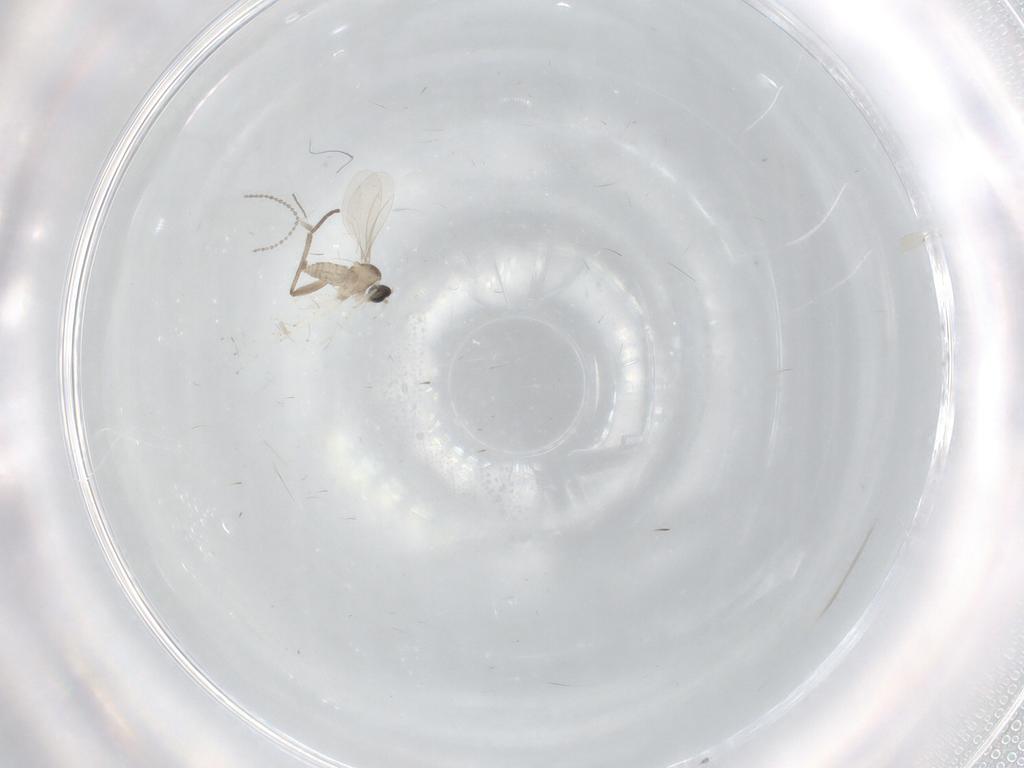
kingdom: Animalia
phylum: Arthropoda
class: Insecta
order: Diptera
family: Cecidomyiidae
